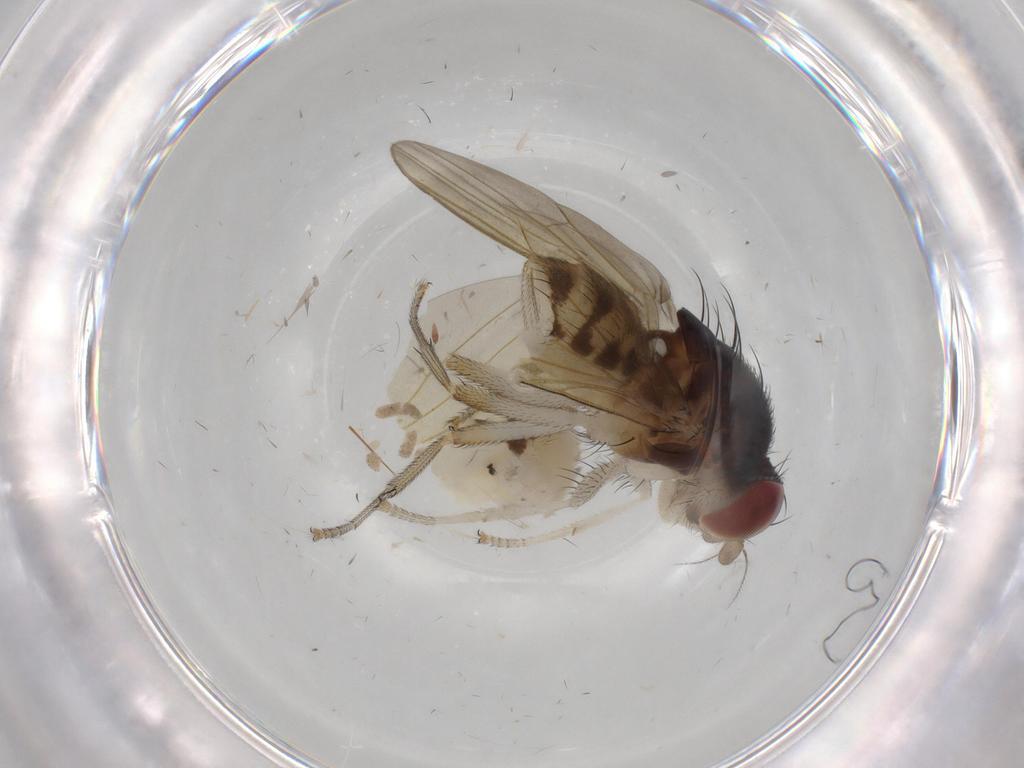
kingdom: Animalia
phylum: Arthropoda
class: Insecta
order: Diptera
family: Lauxaniidae
